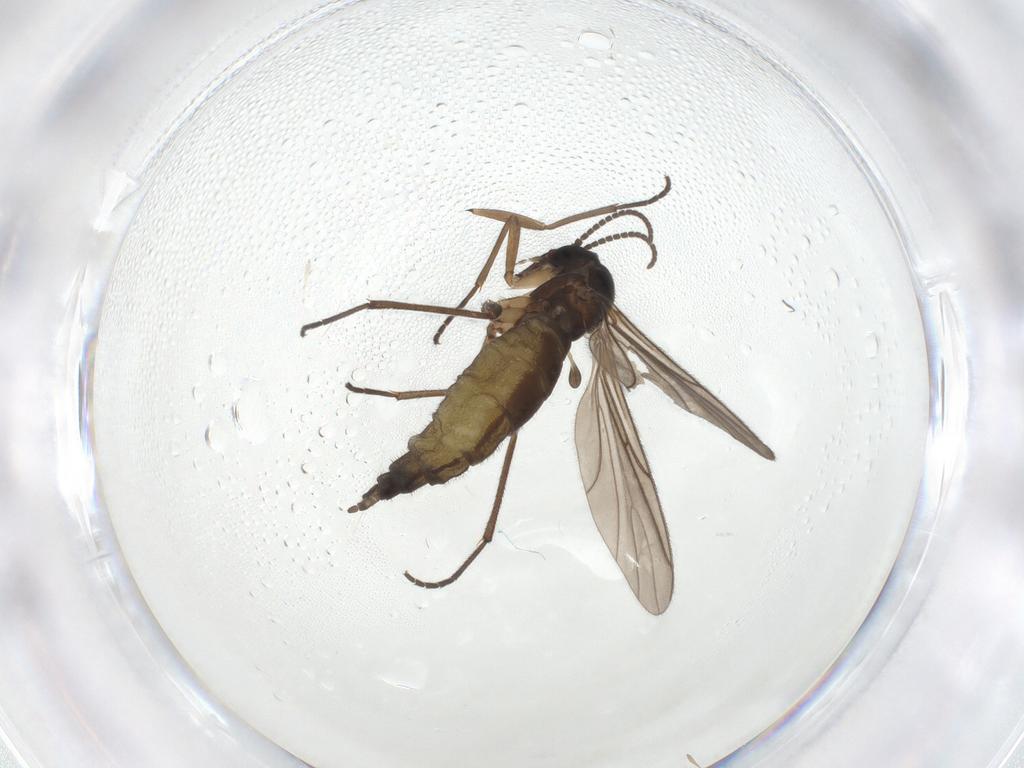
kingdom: Animalia
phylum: Arthropoda
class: Insecta
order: Diptera
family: Sciaridae
